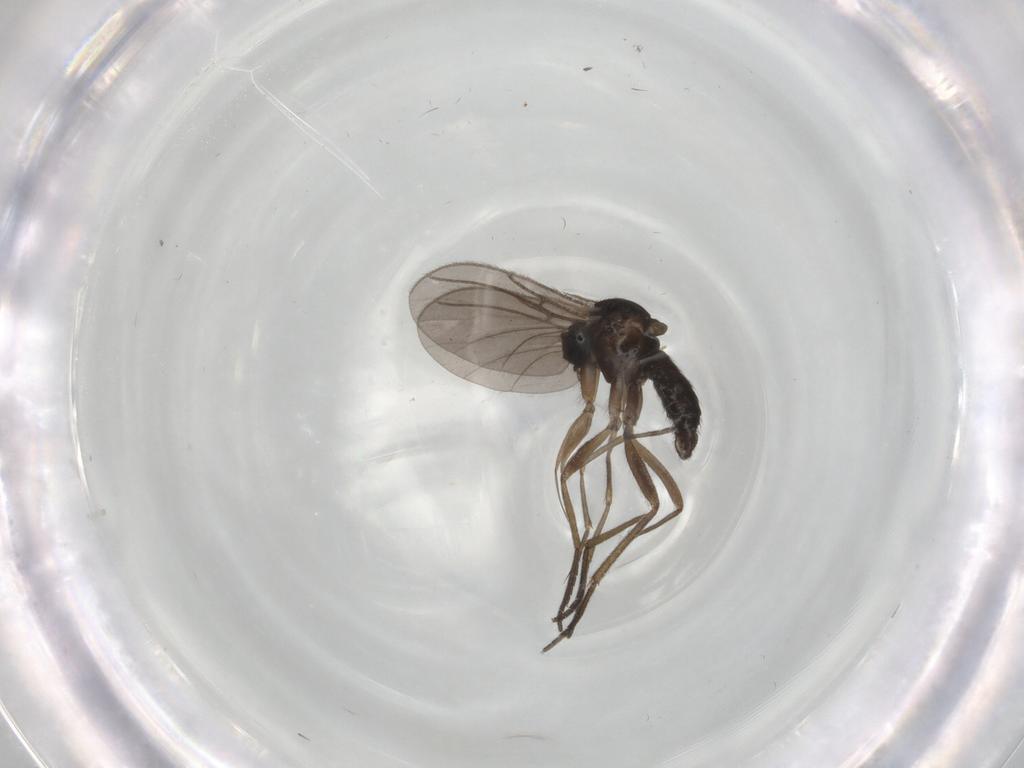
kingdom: Animalia
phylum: Arthropoda
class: Insecta
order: Diptera
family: Sciaridae
